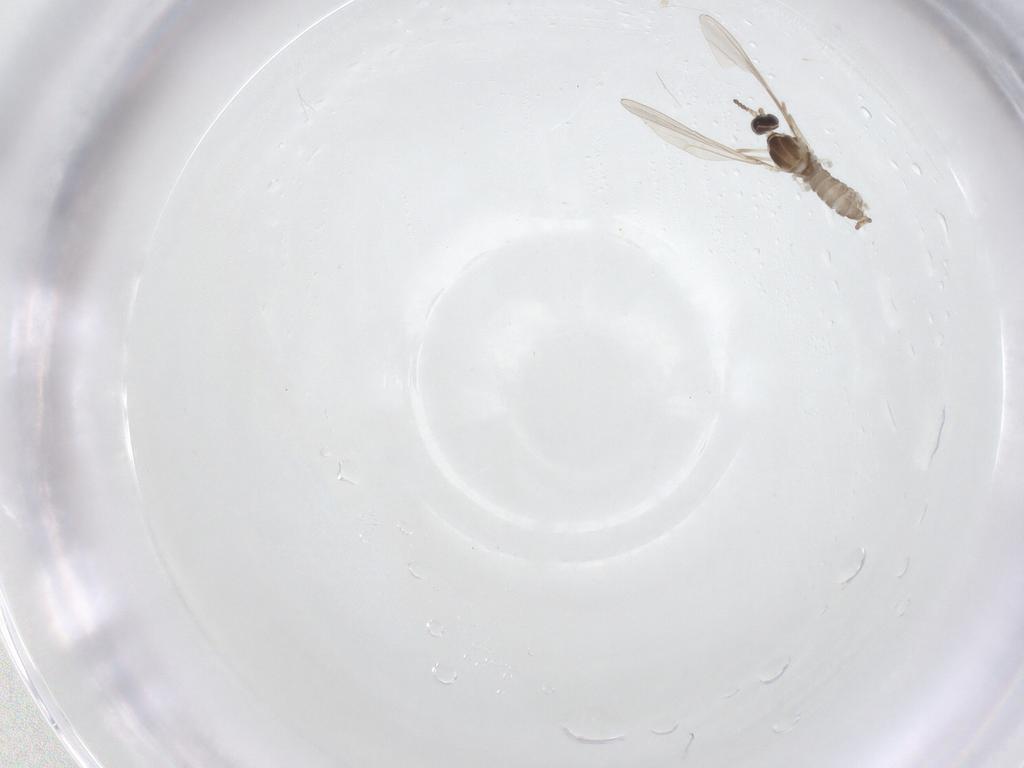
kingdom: Animalia
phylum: Arthropoda
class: Insecta
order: Diptera
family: Cecidomyiidae
